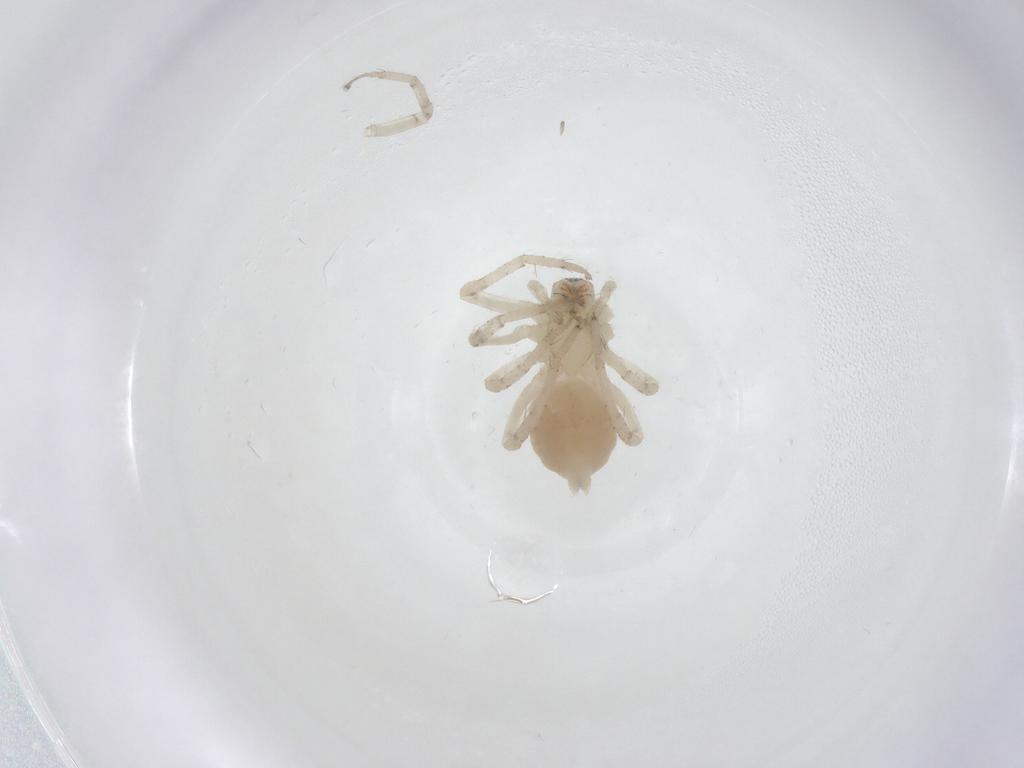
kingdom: Animalia
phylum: Arthropoda
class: Arachnida
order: Araneae
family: Anyphaenidae
